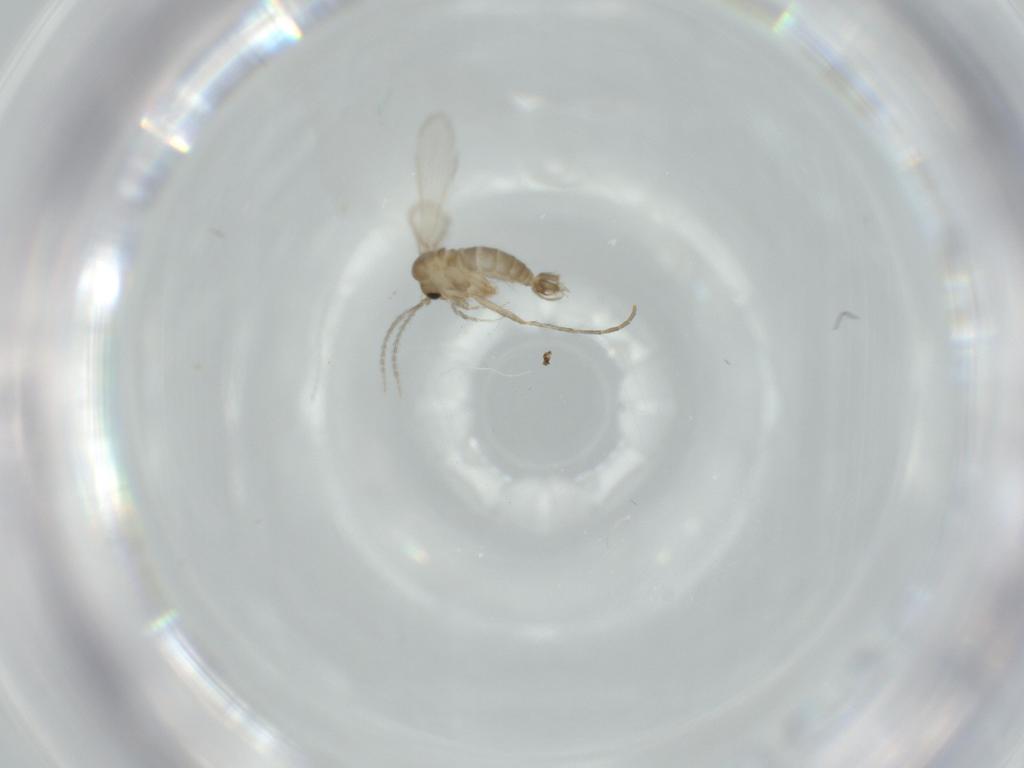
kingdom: Animalia
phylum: Arthropoda
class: Insecta
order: Diptera
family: Psychodidae
